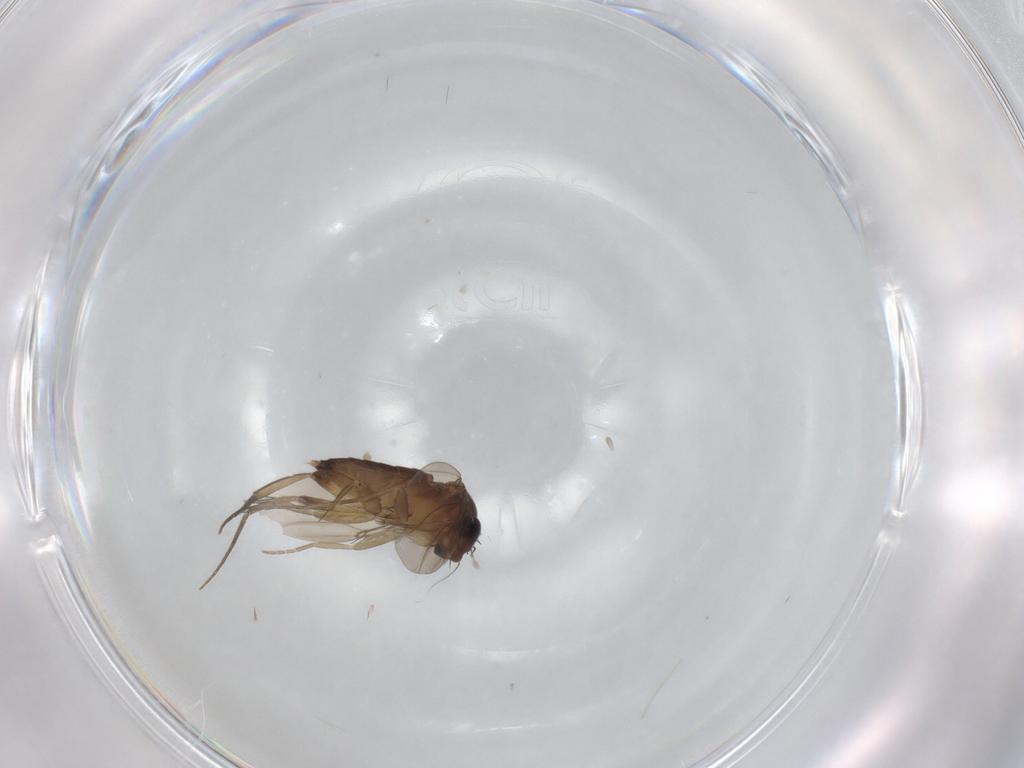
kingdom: Animalia
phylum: Arthropoda
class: Insecta
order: Diptera
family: Phoridae
